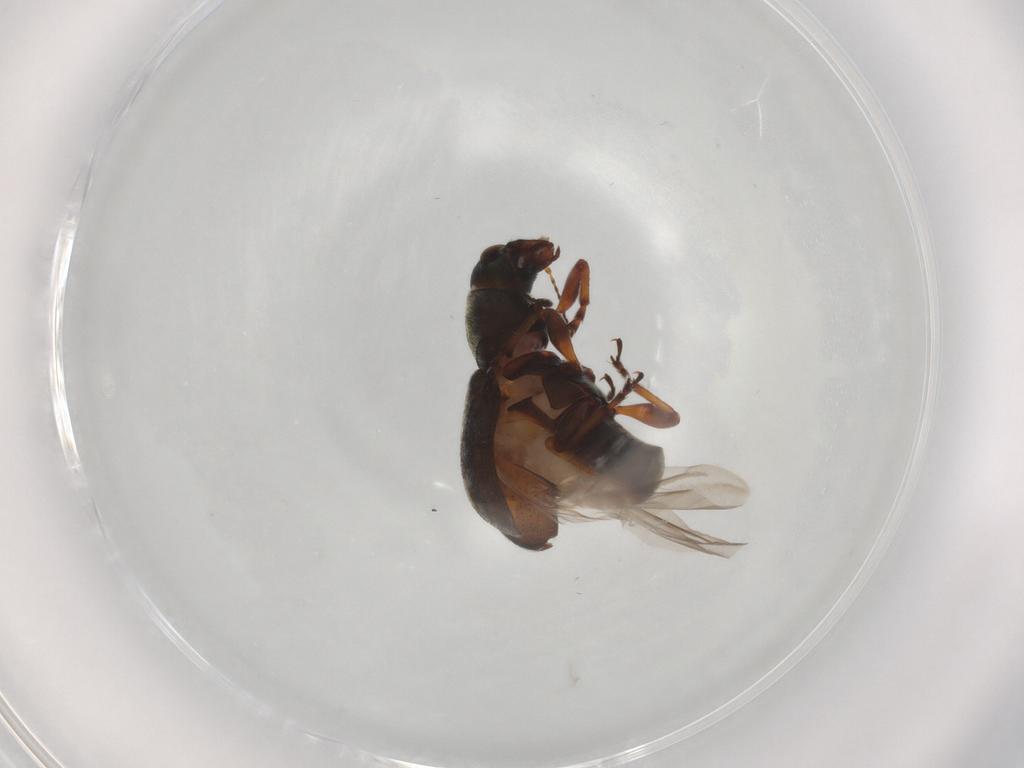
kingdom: Animalia
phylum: Arthropoda
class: Insecta
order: Coleoptera
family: Anthribidae
